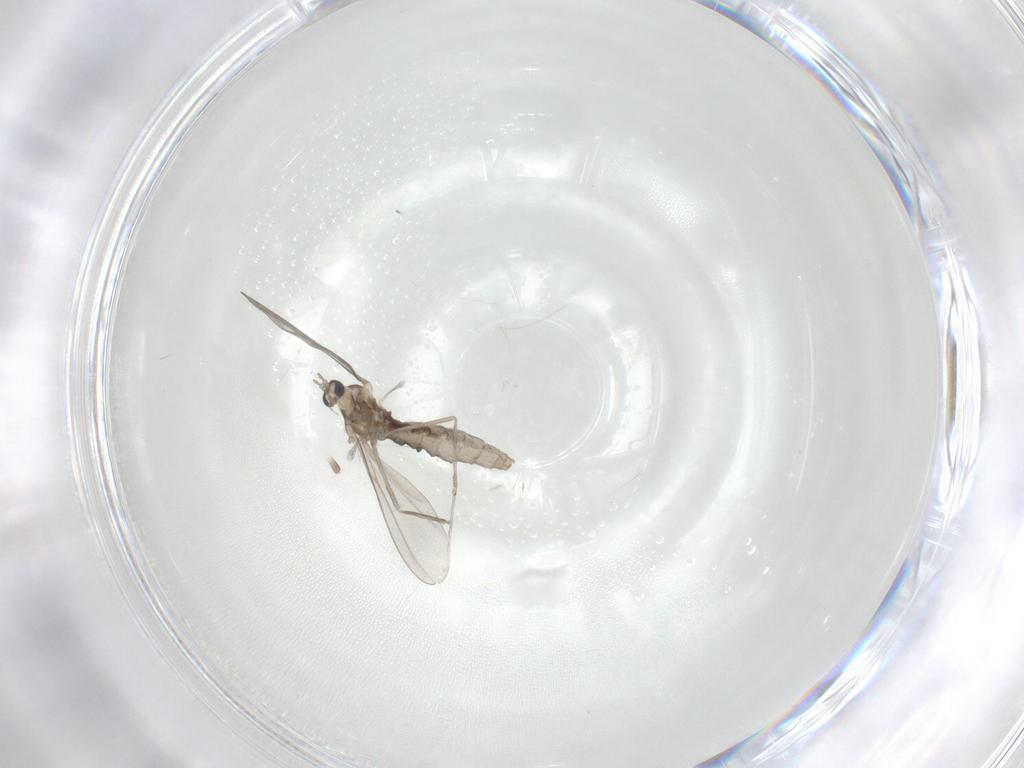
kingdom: Animalia
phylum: Arthropoda
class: Insecta
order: Diptera
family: Cecidomyiidae
